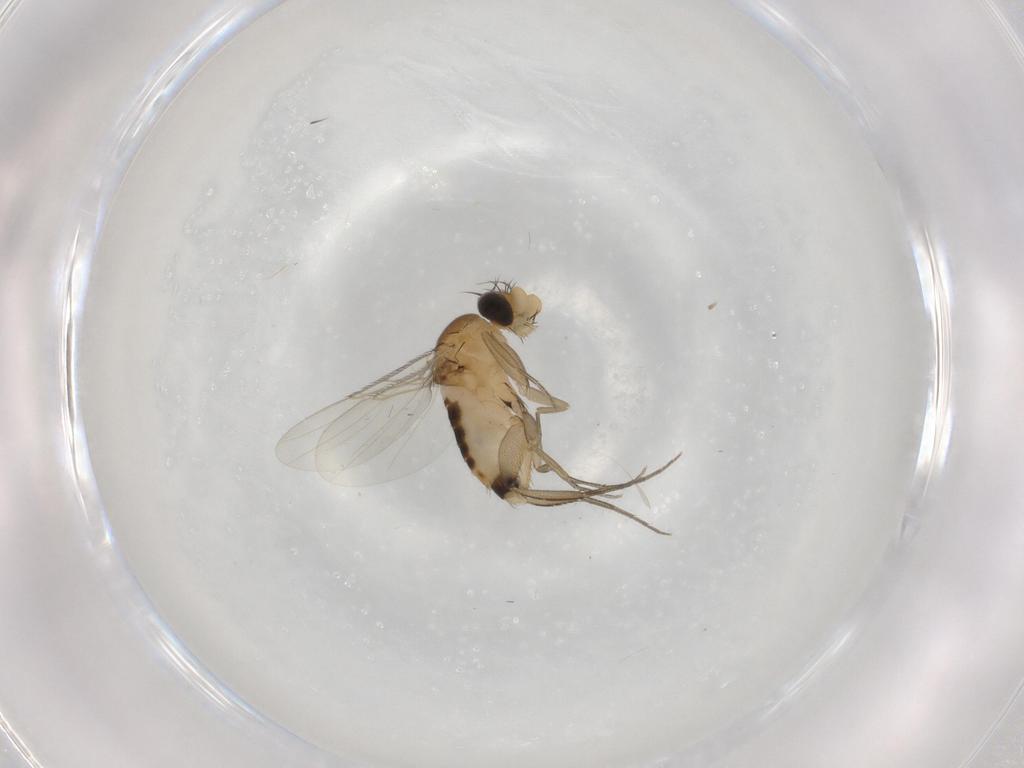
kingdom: Animalia
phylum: Arthropoda
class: Insecta
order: Diptera
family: Phoridae
